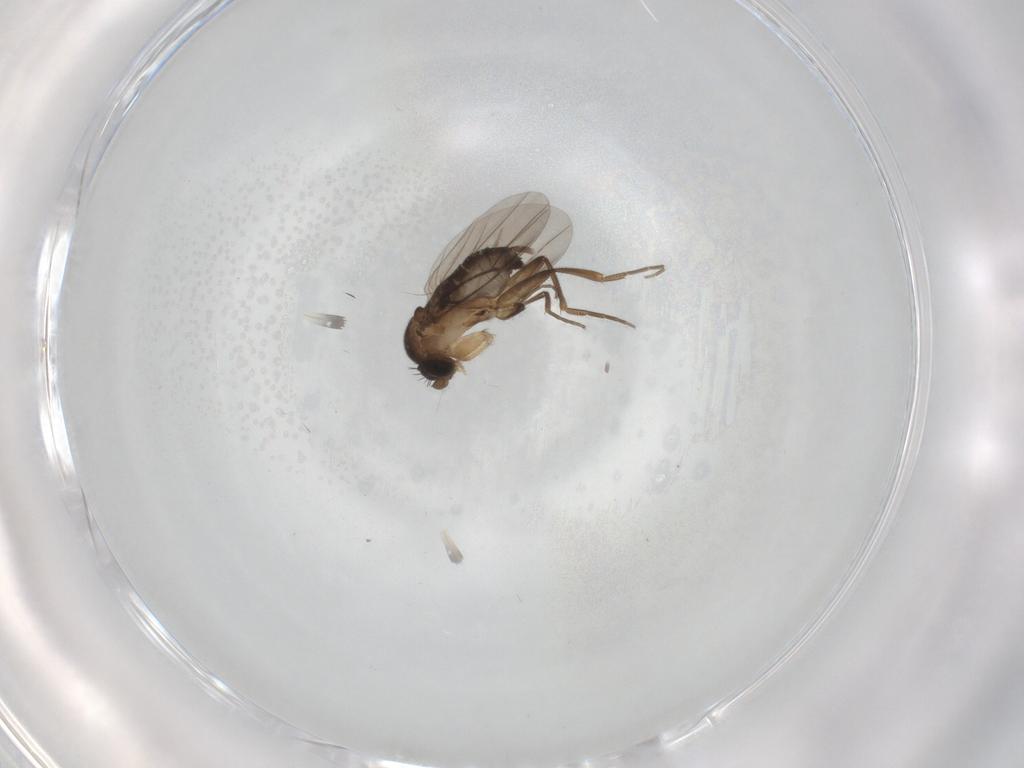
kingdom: Animalia
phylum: Arthropoda
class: Insecta
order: Diptera
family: Phoridae
